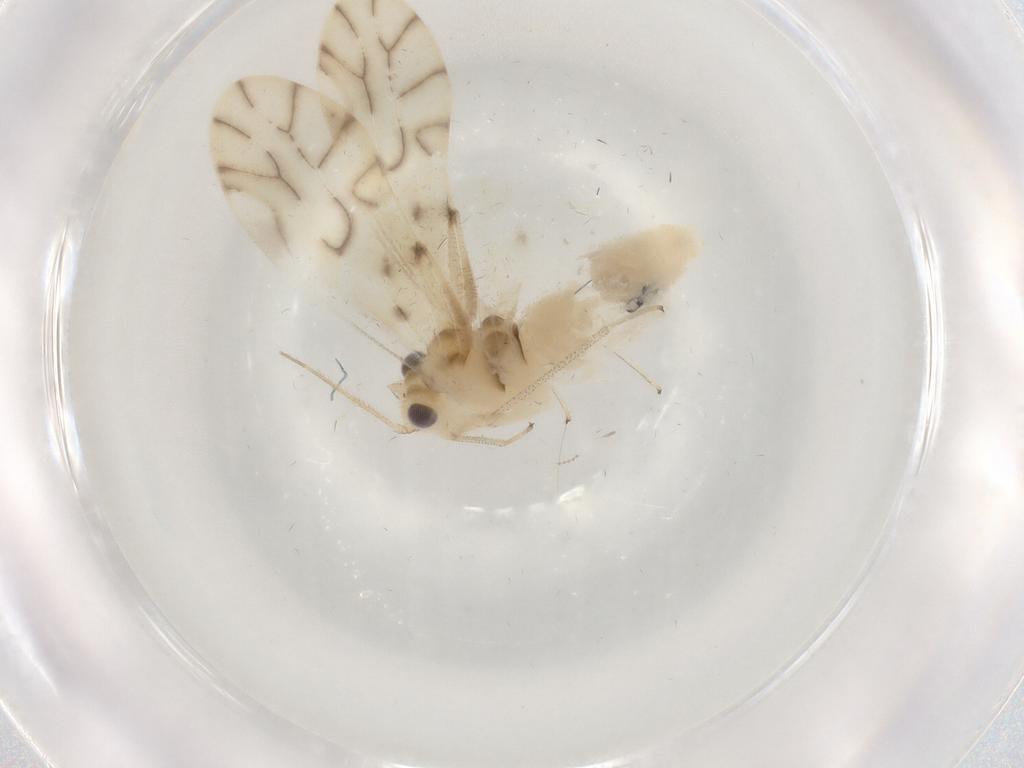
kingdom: Animalia
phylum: Arthropoda
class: Insecta
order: Psocodea
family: Caeciliusidae
